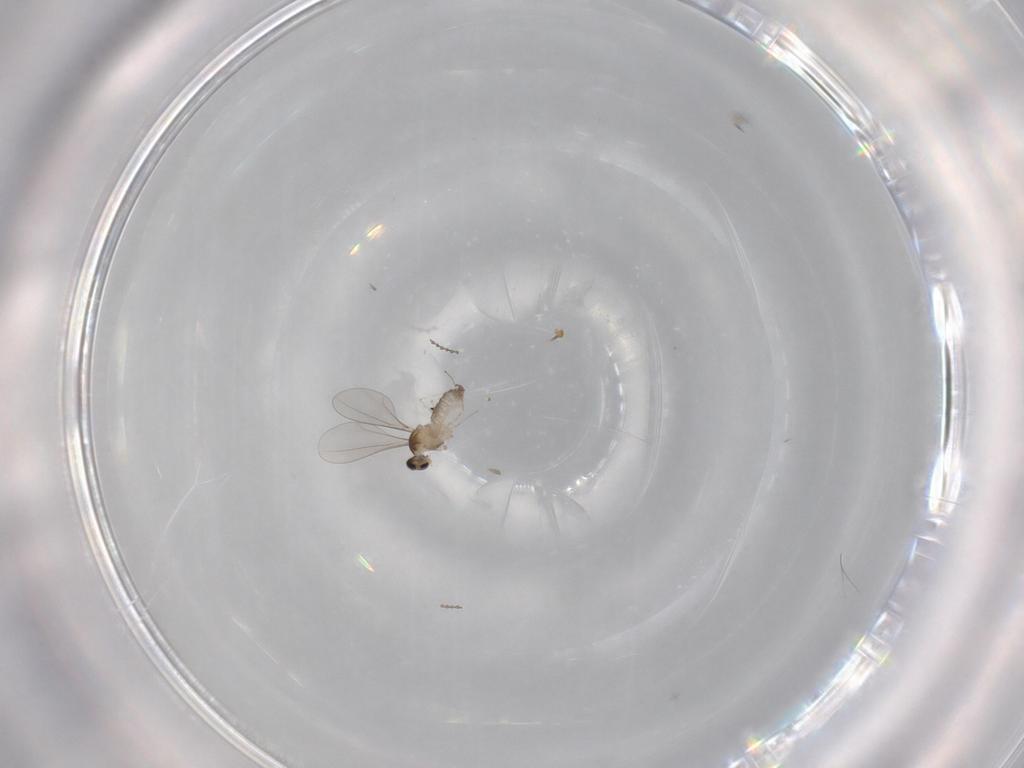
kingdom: Animalia
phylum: Arthropoda
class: Insecta
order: Diptera
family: Cecidomyiidae
